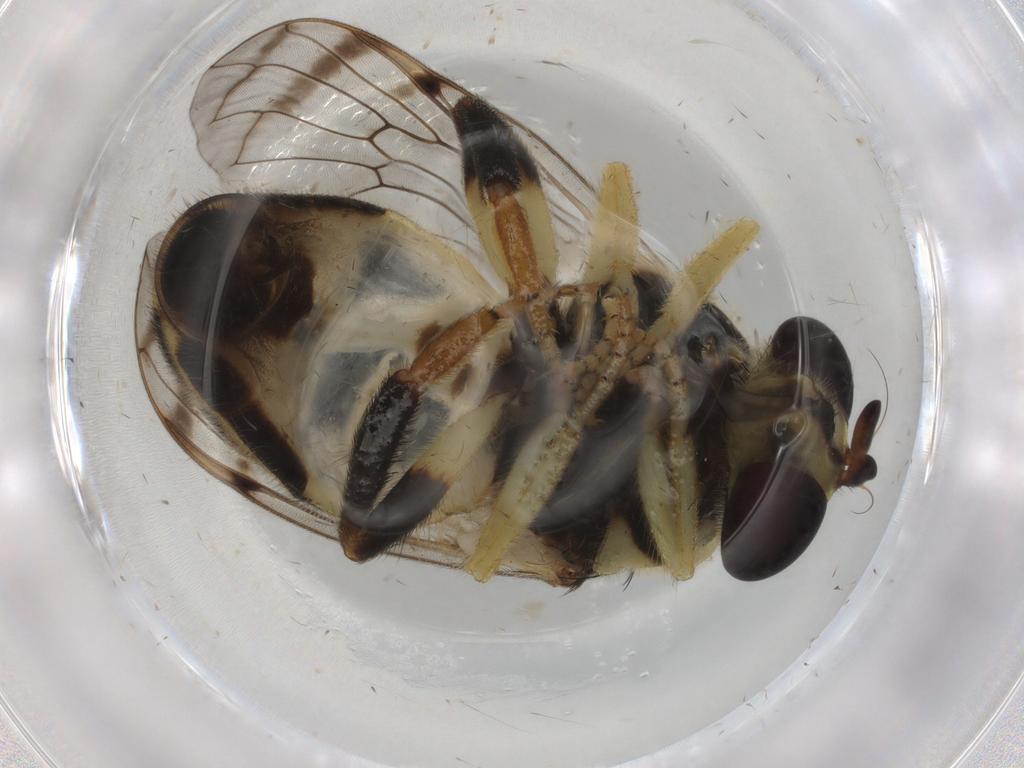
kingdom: Animalia
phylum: Arthropoda
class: Insecta
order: Diptera
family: Syrphidae
